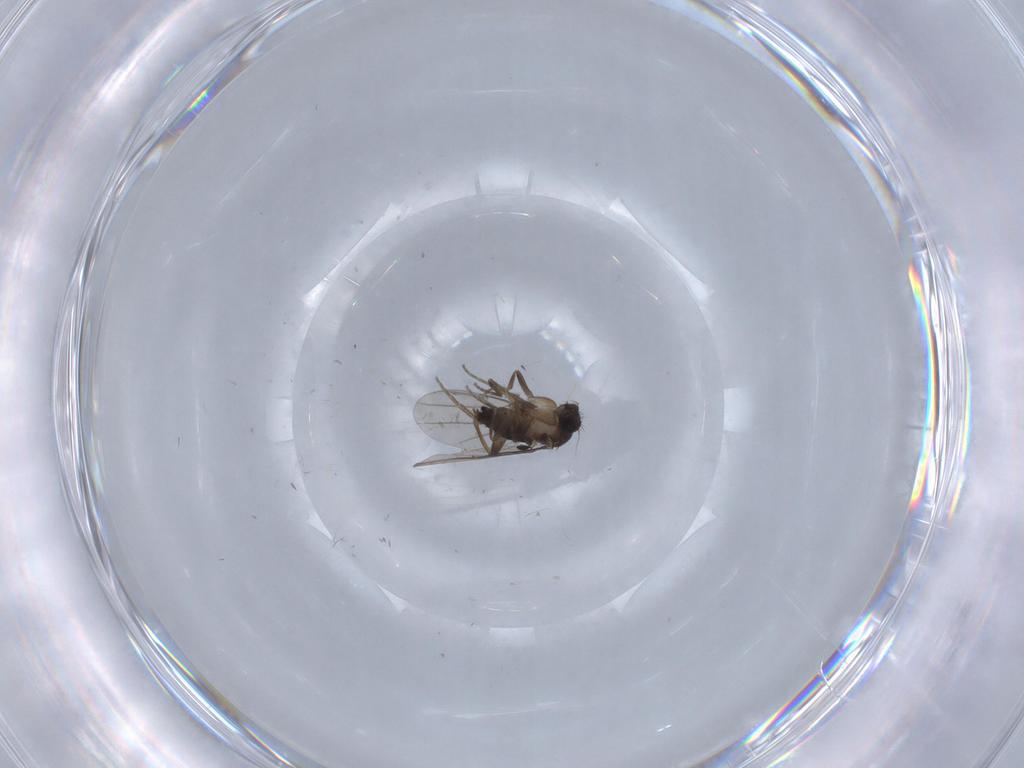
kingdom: Animalia
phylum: Arthropoda
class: Insecta
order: Diptera
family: Phoridae
